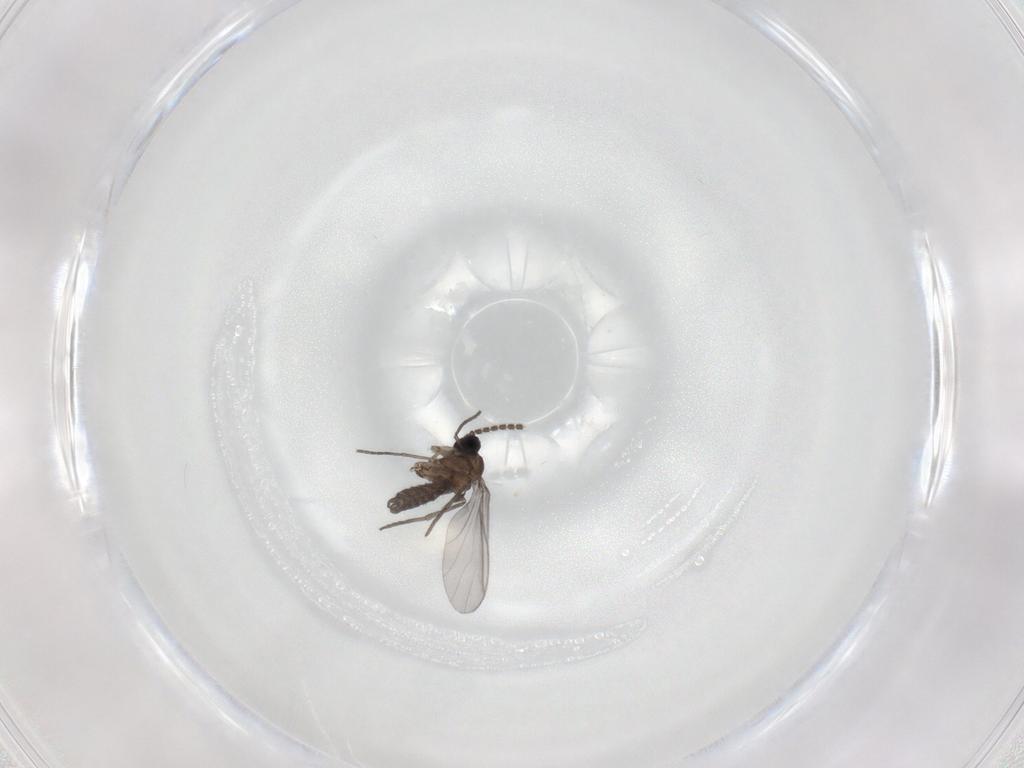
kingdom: Animalia
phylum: Arthropoda
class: Insecta
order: Diptera
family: Sciaridae
